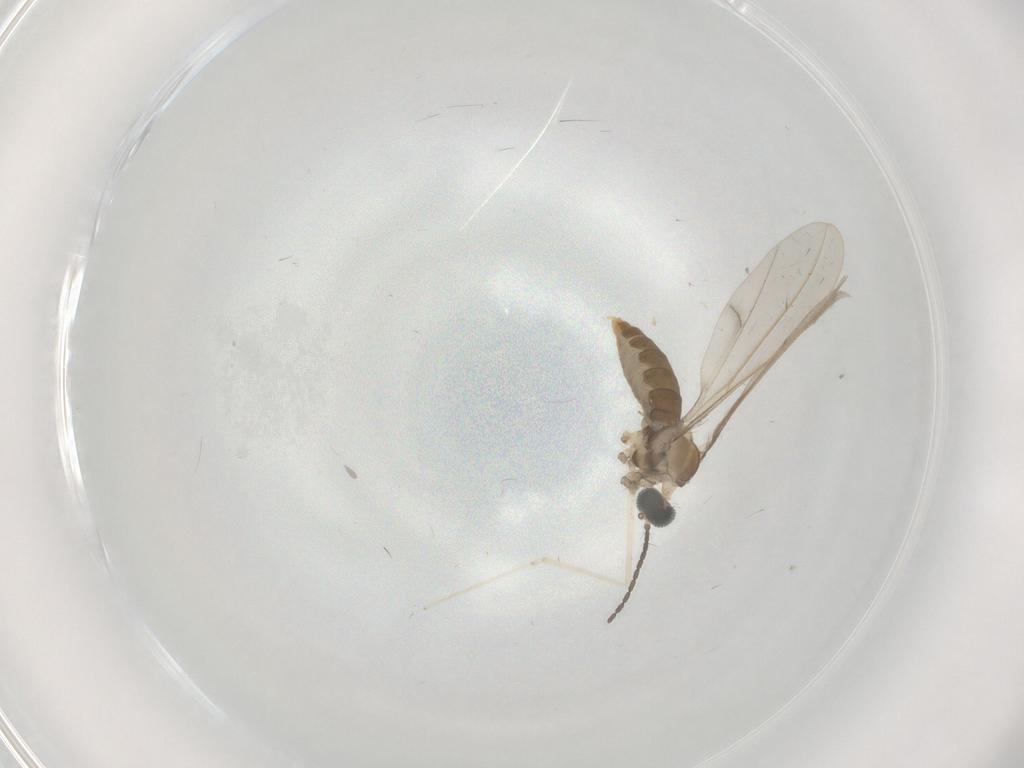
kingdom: Animalia
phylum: Arthropoda
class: Insecta
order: Diptera
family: Cecidomyiidae
